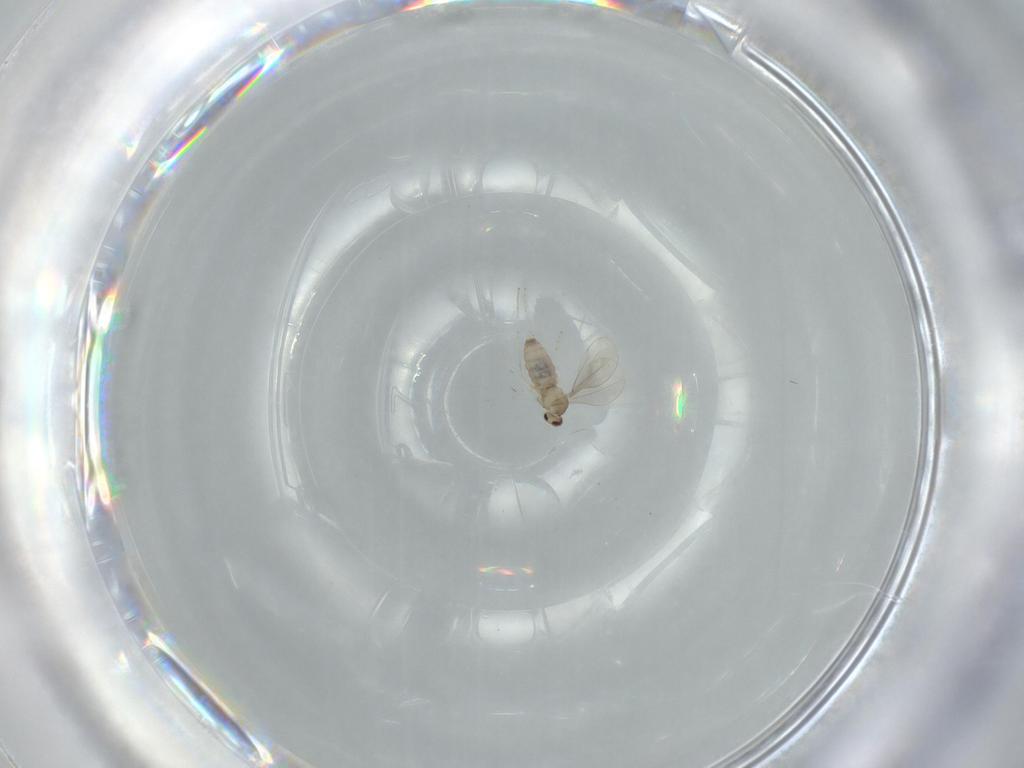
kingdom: Animalia
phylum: Arthropoda
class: Insecta
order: Diptera
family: Cecidomyiidae
